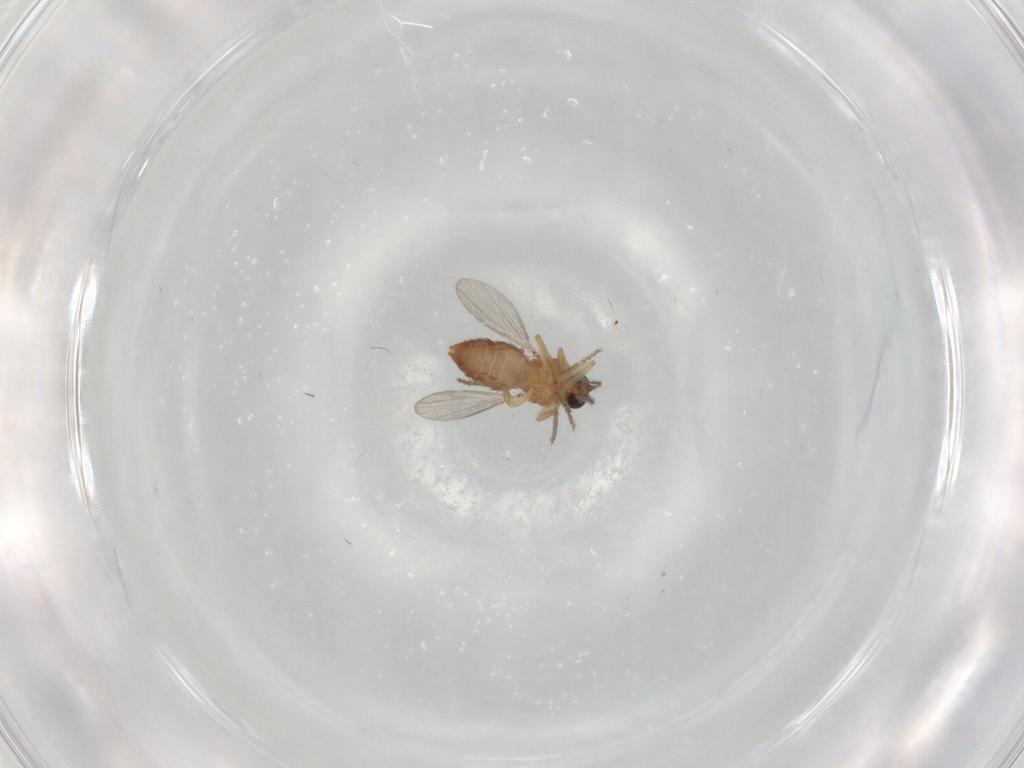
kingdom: Animalia
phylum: Arthropoda
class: Insecta
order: Diptera
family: Ceratopogonidae
